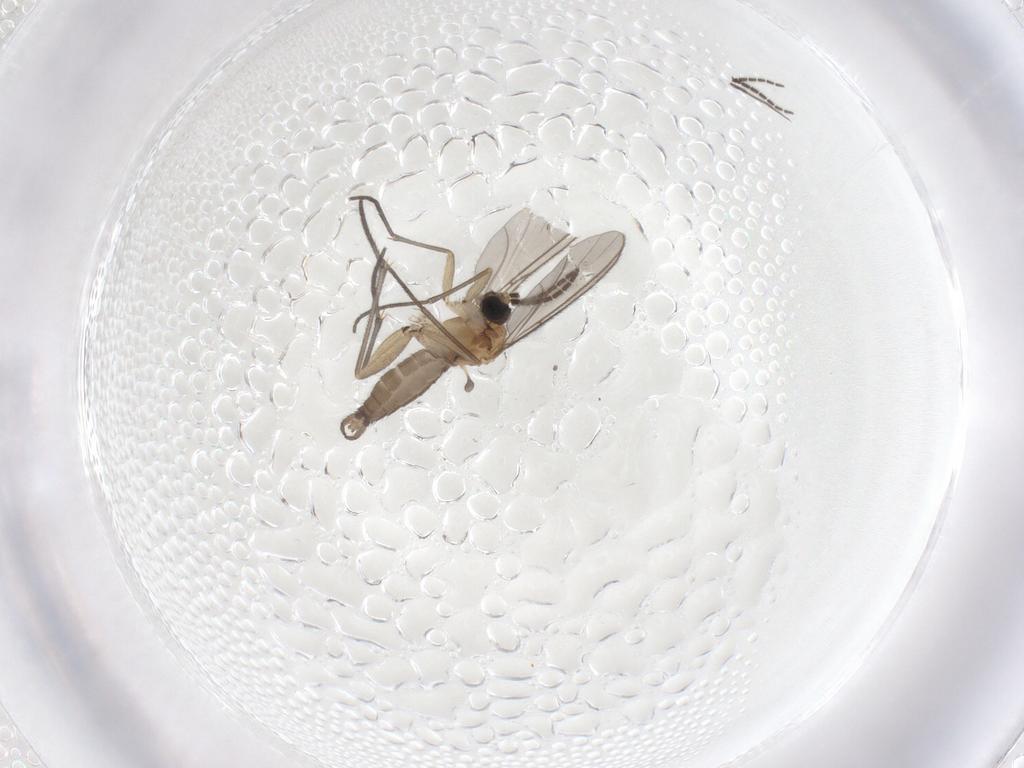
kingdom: Animalia
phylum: Arthropoda
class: Insecta
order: Diptera
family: Sciaridae
